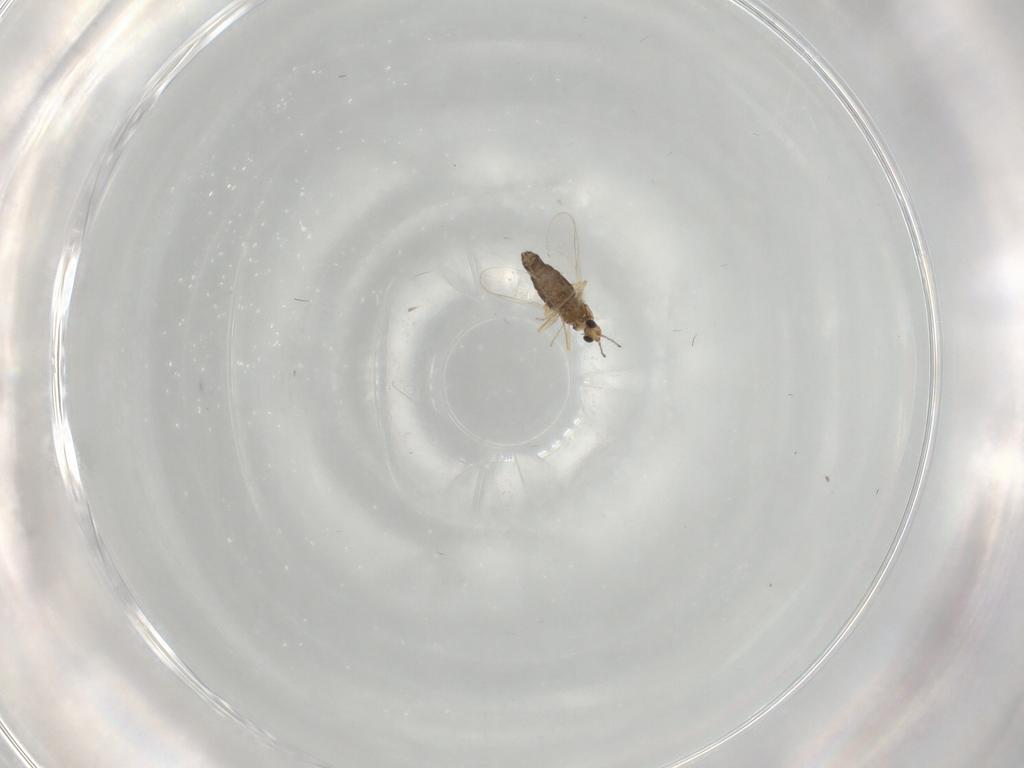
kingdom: Animalia
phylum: Arthropoda
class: Insecta
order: Diptera
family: Chironomidae
